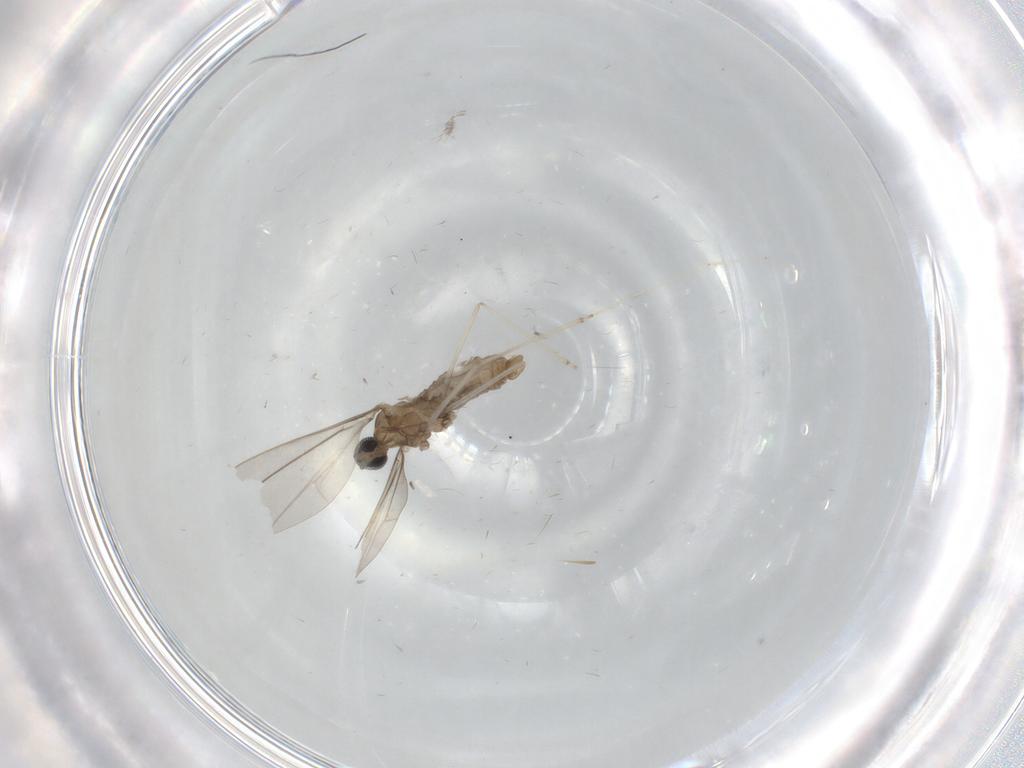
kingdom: Animalia
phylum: Arthropoda
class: Insecta
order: Diptera
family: Cecidomyiidae
